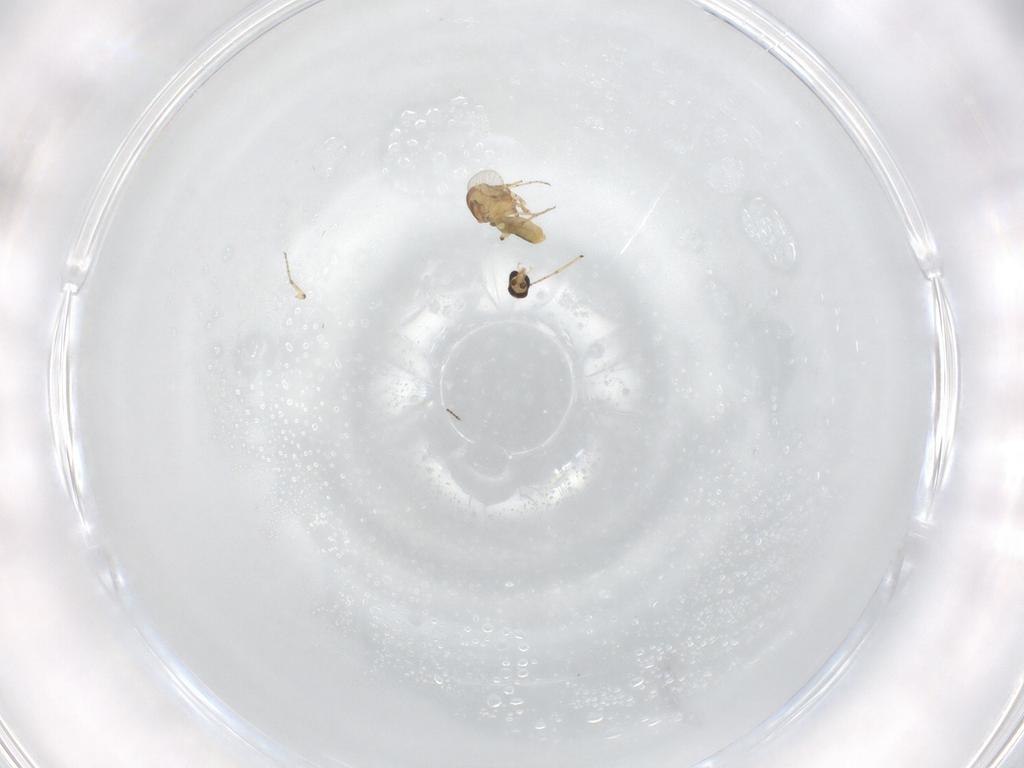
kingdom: Animalia
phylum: Arthropoda
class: Insecta
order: Diptera
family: Ceratopogonidae
